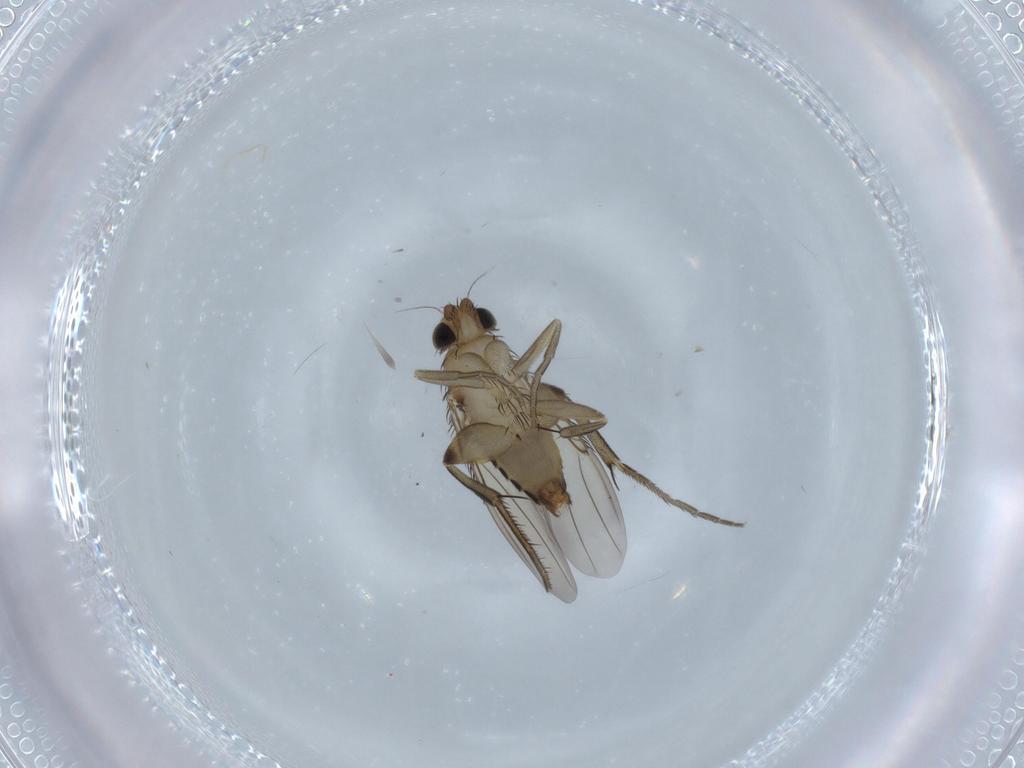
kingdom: Animalia
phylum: Arthropoda
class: Insecta
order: Diptera
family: Phoridae
